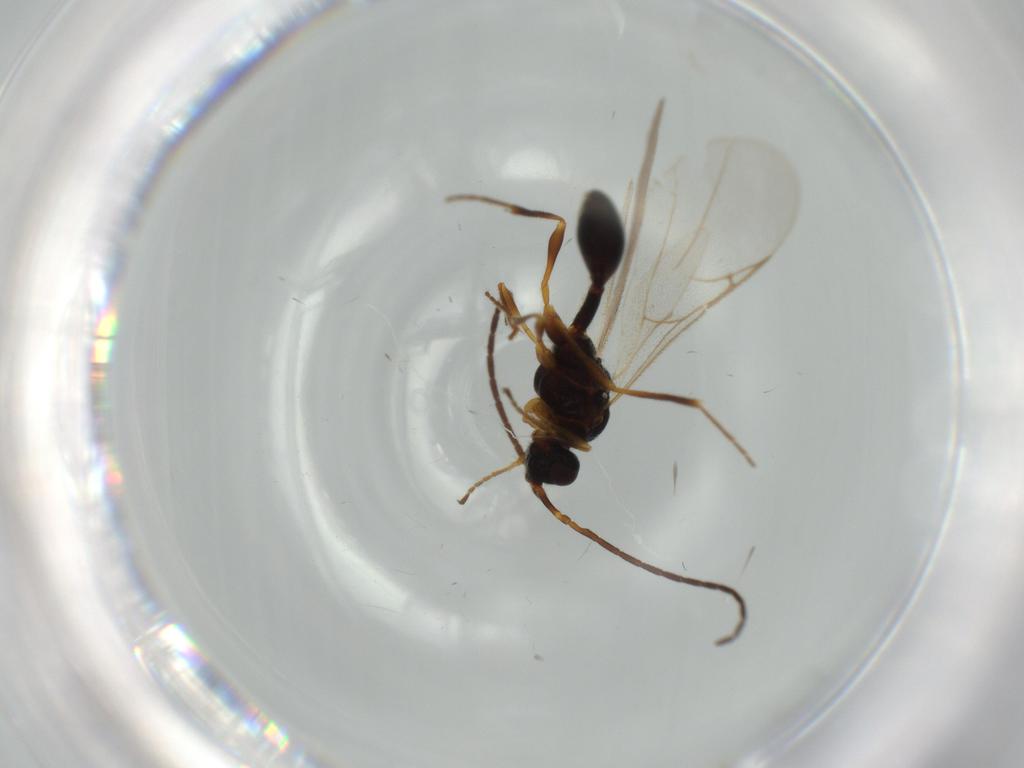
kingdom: Animalia
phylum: Arthropoda
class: Insecta
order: Hymenoptera
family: Diapriidae
